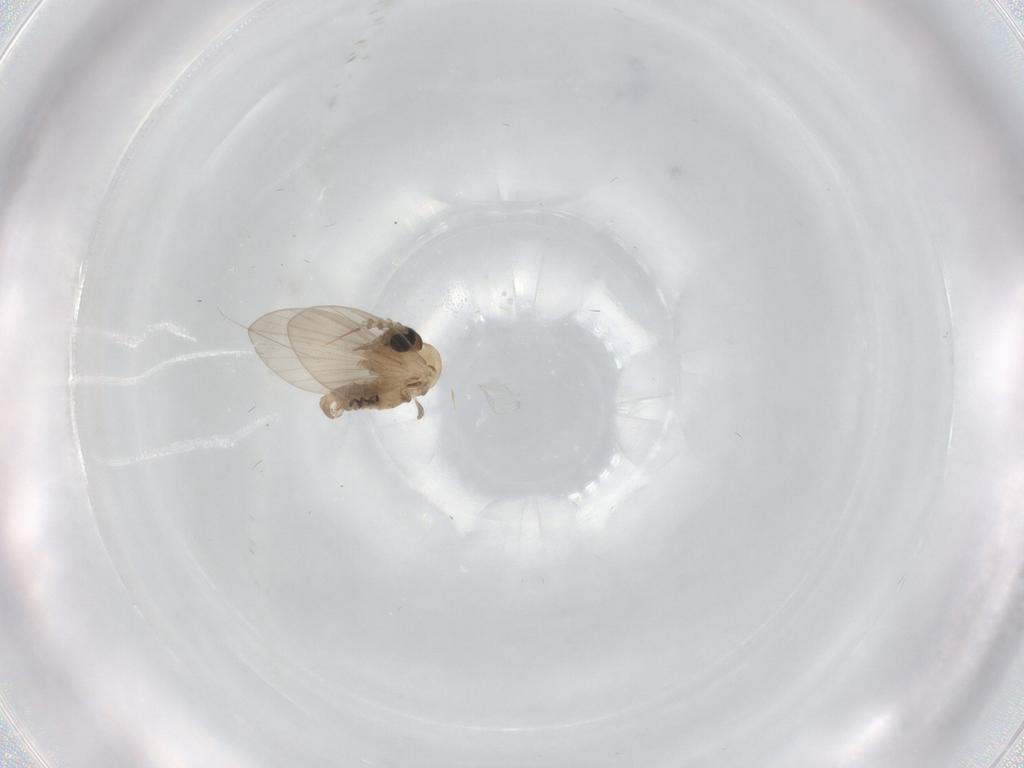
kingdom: Animalia
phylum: Arthropoda
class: Insecta
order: Diptera
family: Psychodidae
